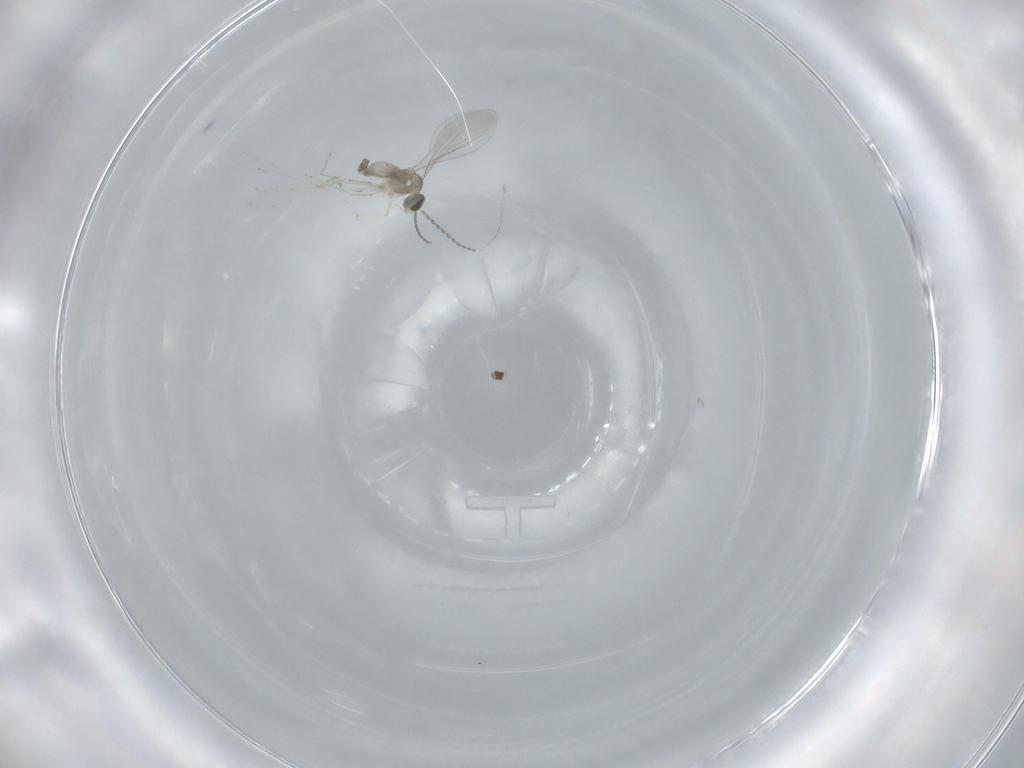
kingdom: Animalia
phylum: Arthropoda
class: Insecta
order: Diptera
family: Cecidomyiidae
